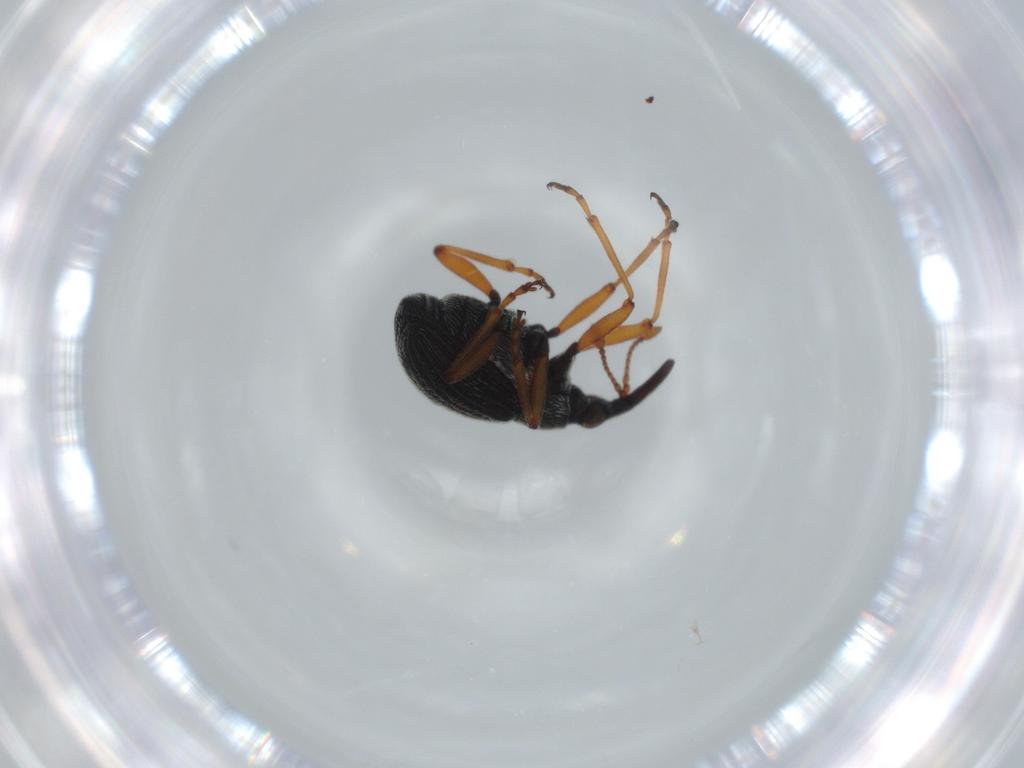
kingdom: Animalia
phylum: Arthropoda
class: Insecta
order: Coleoptera
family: Brentidae
